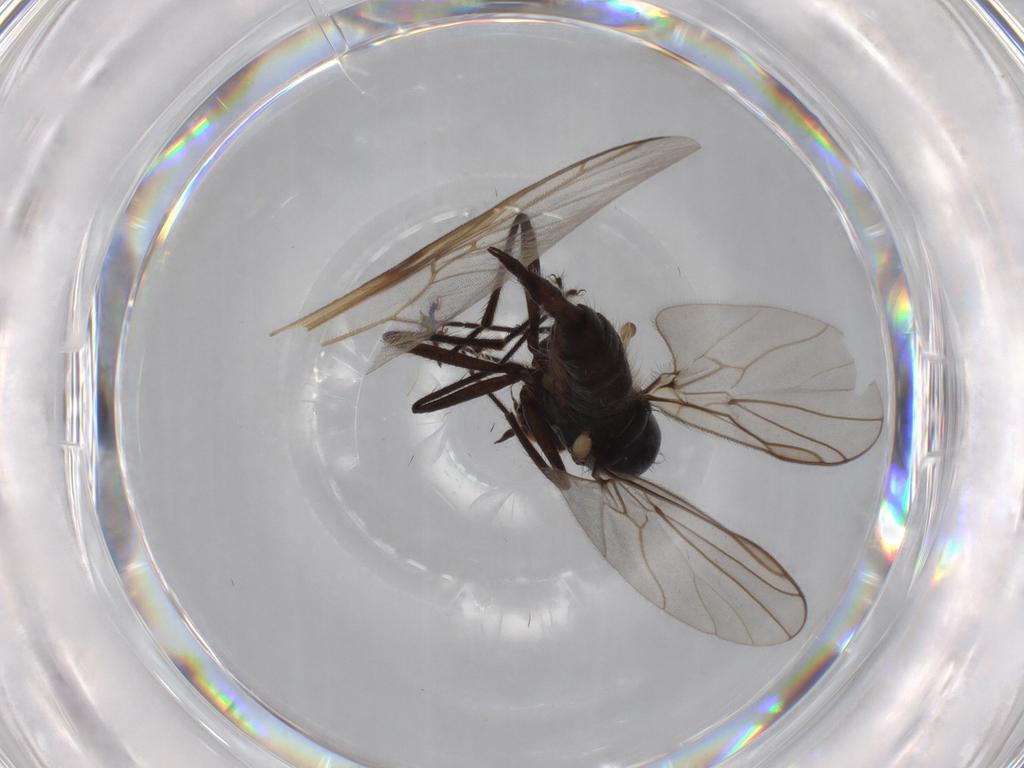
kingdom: Animalia
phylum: Arthropoda
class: Insecta
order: Diptera
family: Stratiomyidae
